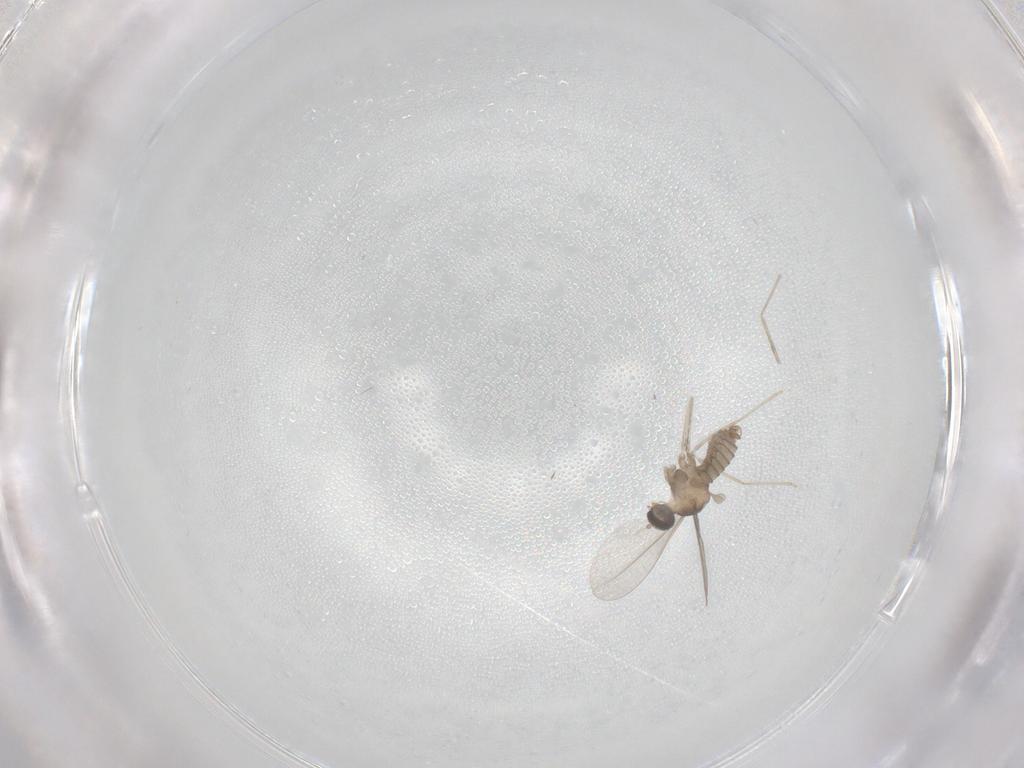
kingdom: Animalia
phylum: Arthropoda
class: Insecta
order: Diptera
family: Cecidomyiidae
